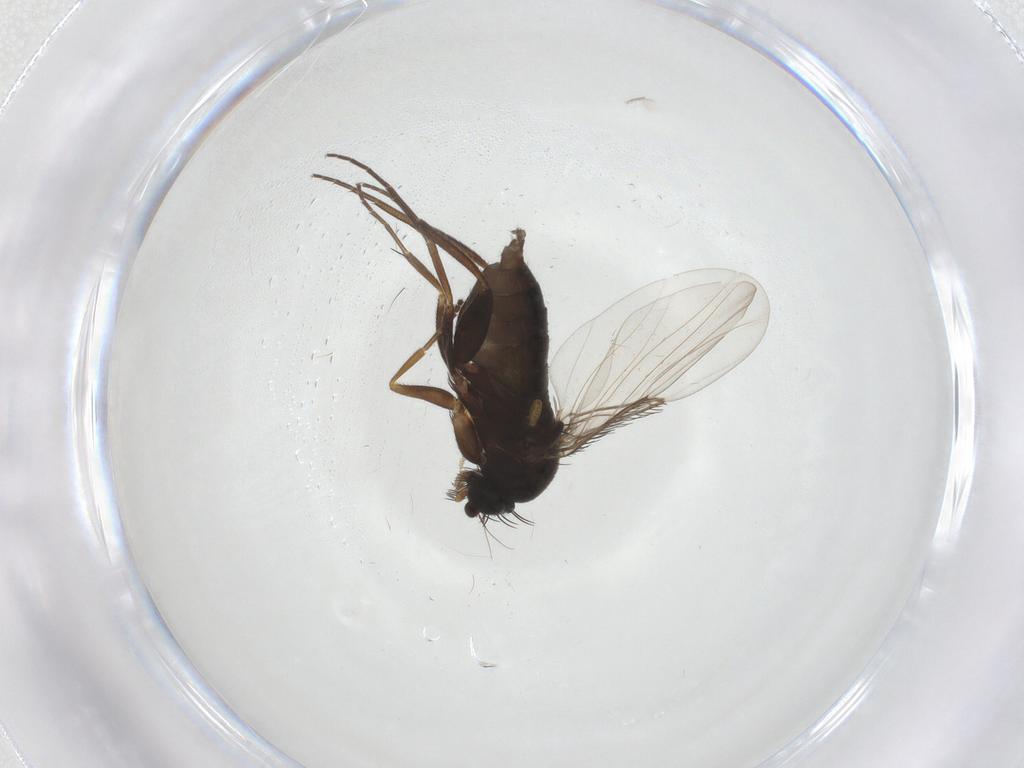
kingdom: Animalia
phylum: Arthropoda
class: Insecta
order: Diptera
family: Phoridae
